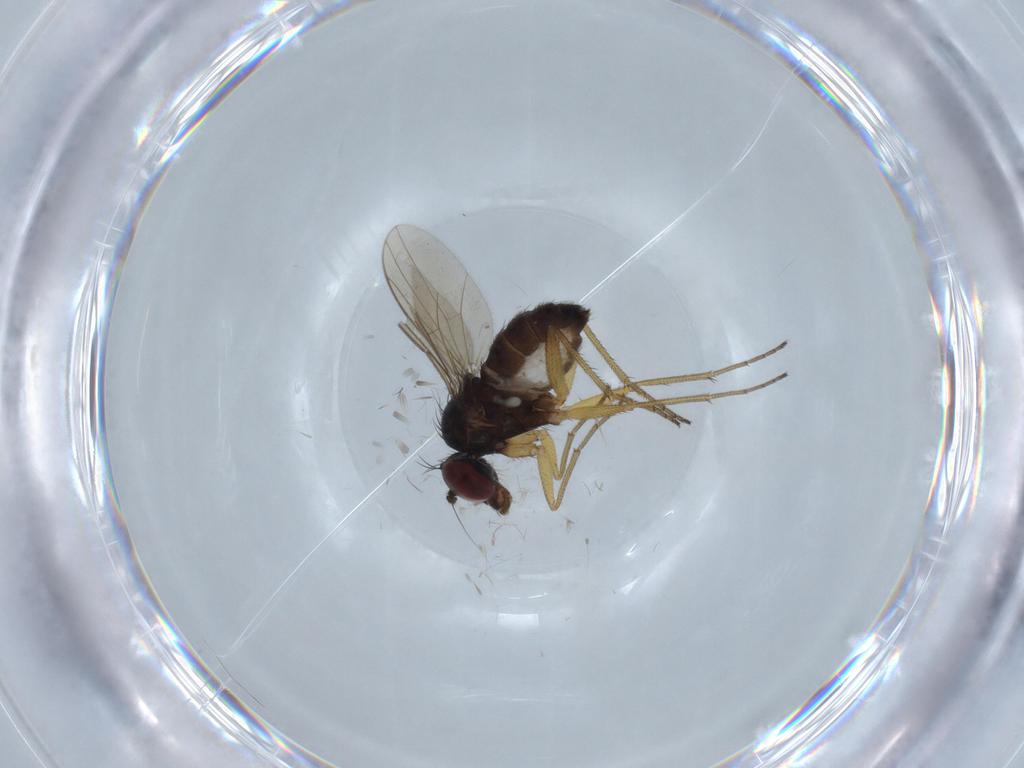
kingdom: Animalia
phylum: Arthropoda
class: Insecta
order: Diptera
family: Dolichopodidae
